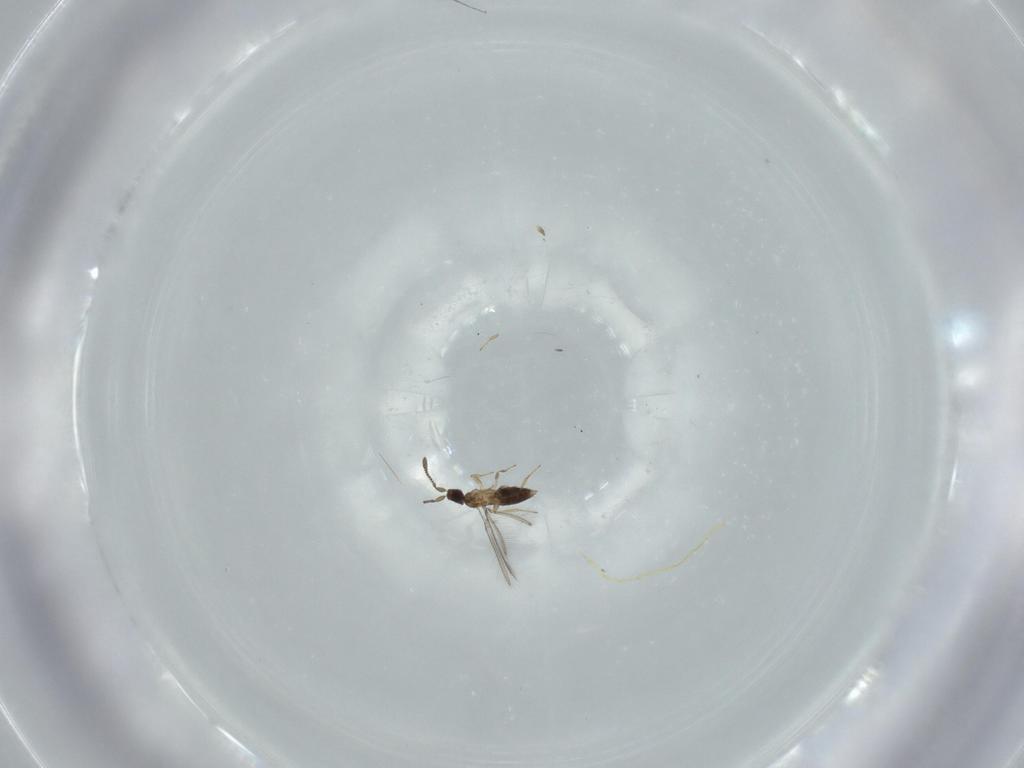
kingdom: Animalia
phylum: Arthropoda
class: Insecta
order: Hymenoptera
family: Mymaridae
